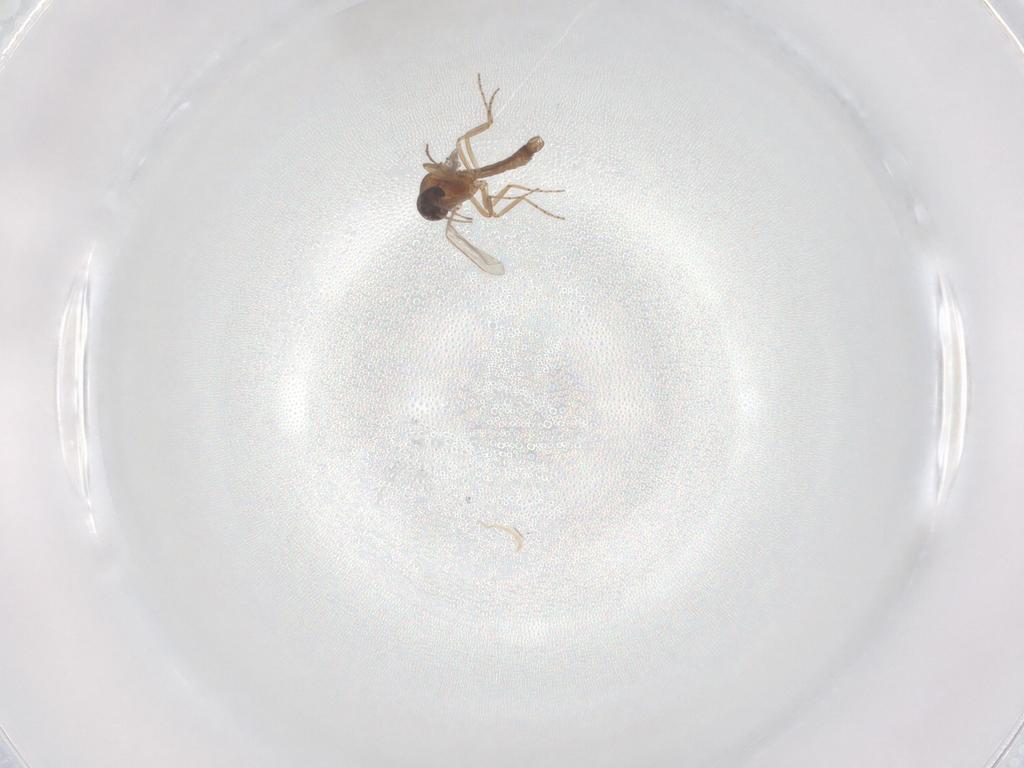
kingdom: Animalia
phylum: Arthropoda
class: Insecta
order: Diptera
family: Chironomidae
